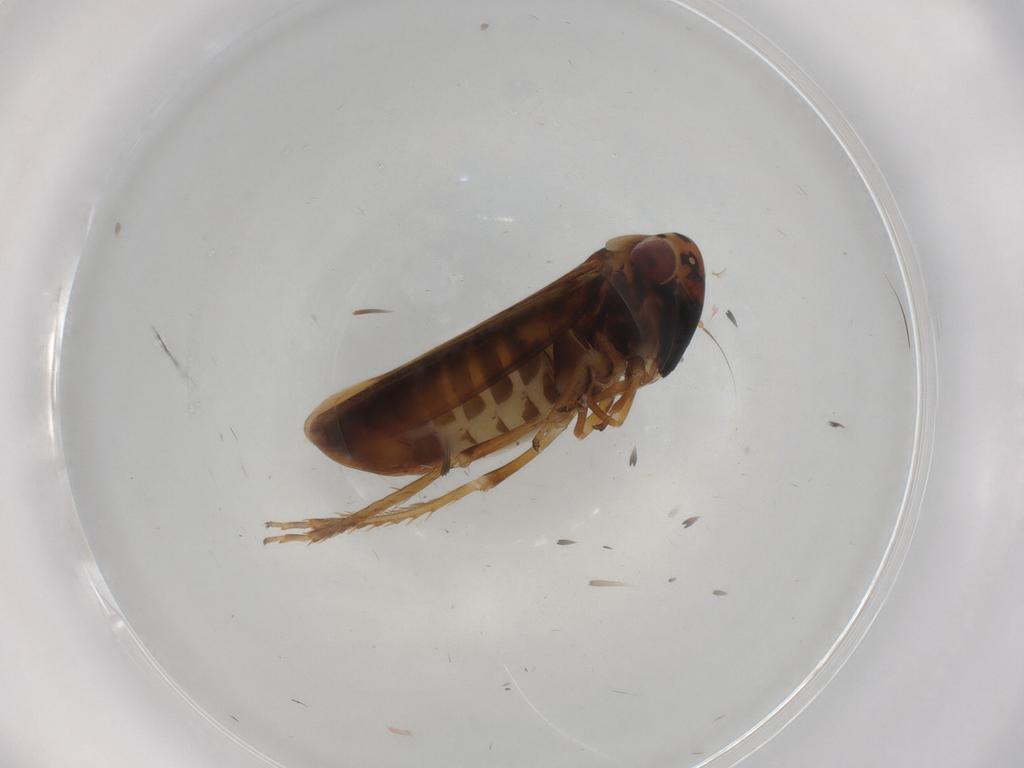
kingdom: Animalia
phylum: Arthropoda
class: Insecta
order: Hemiptera
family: Cicadellidae
